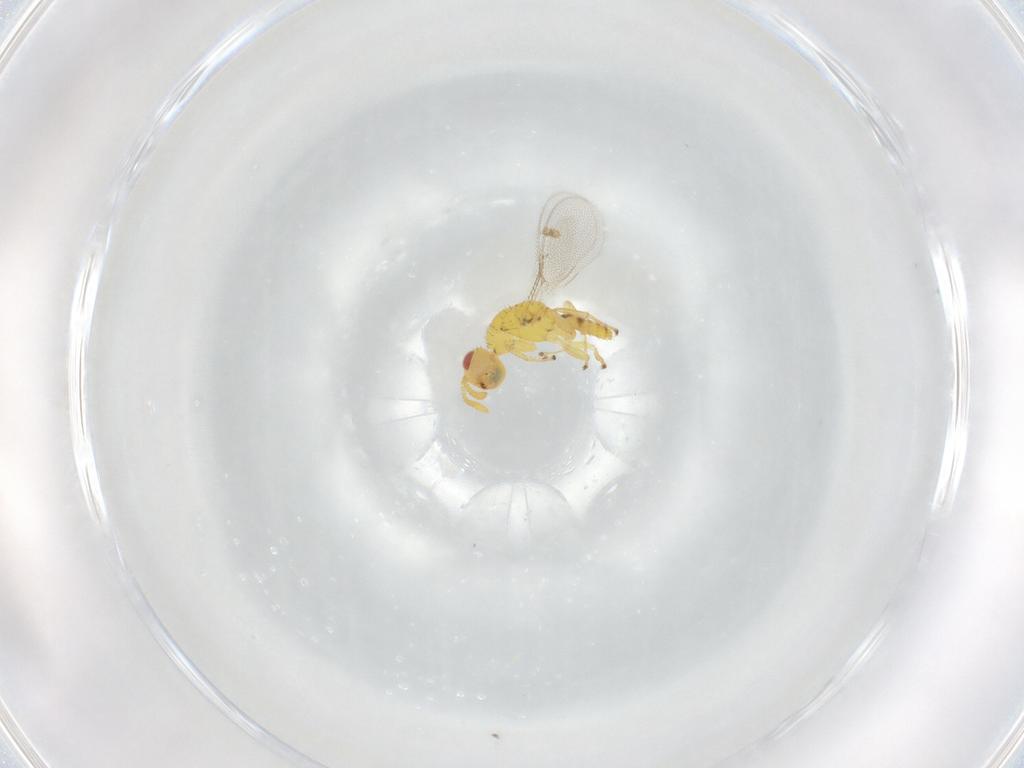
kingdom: Animalia
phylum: Arthropoda
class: Insecta
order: Hymenoptera
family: Megastigmidae
